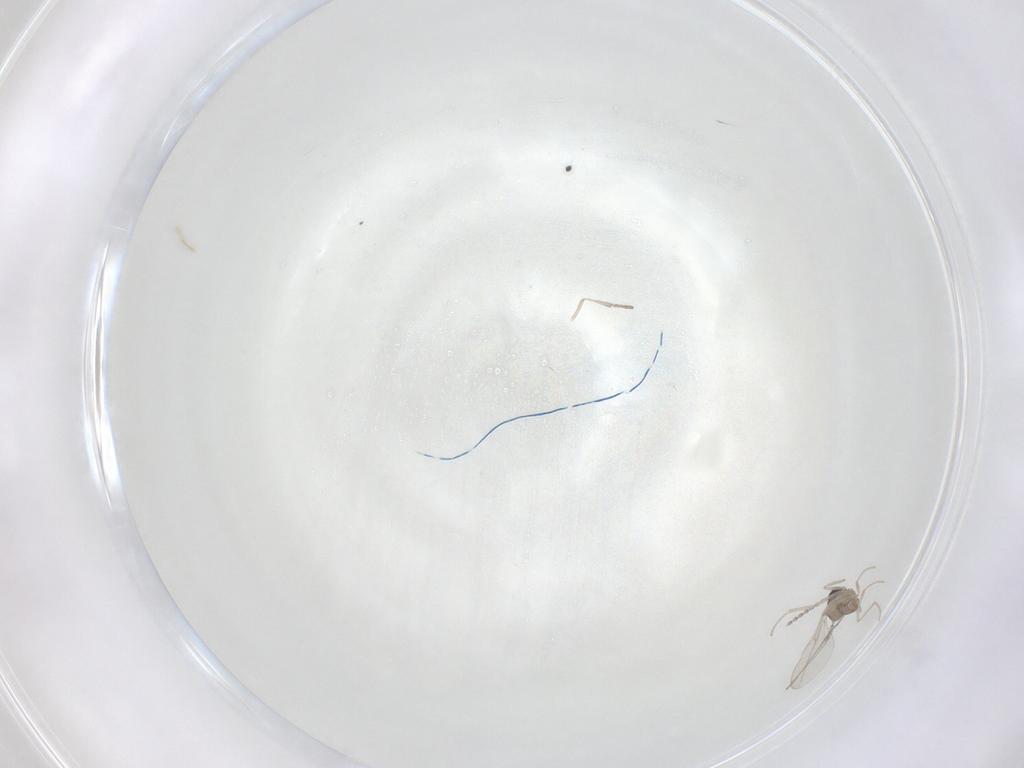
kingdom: Animalia
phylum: Arthropoda
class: Insecta
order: Diptera
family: Psychodidae
